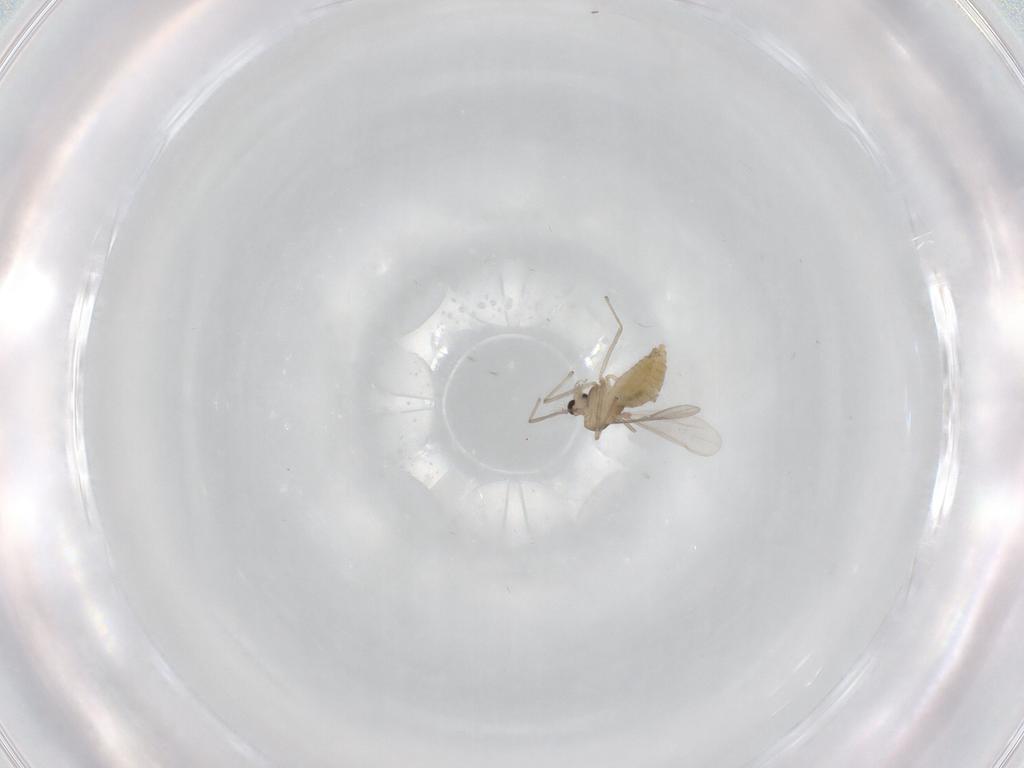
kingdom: Animalia
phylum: Arthropoda
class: Insecta
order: Diptera
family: Chironomidae
